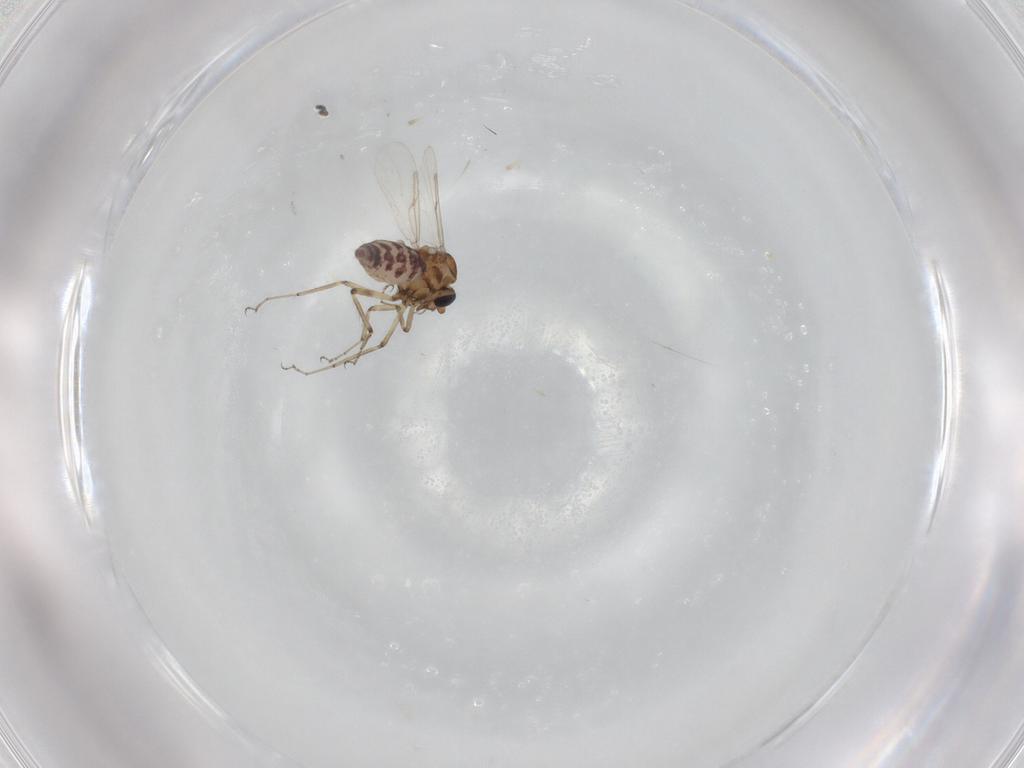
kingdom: Animalia
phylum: Arthropoda
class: Insecta
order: Diptera
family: Ceratopogonidae
